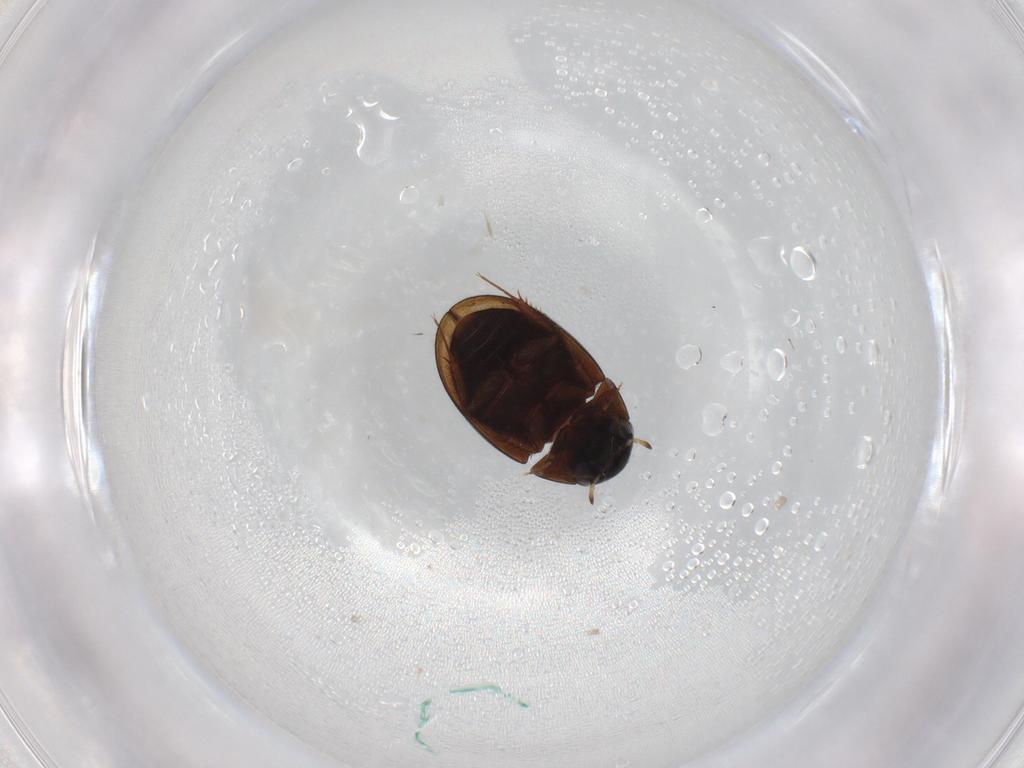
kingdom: Animalia
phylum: Arthropoda
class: Insecta
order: Coleoptera
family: Hydrophilidae
